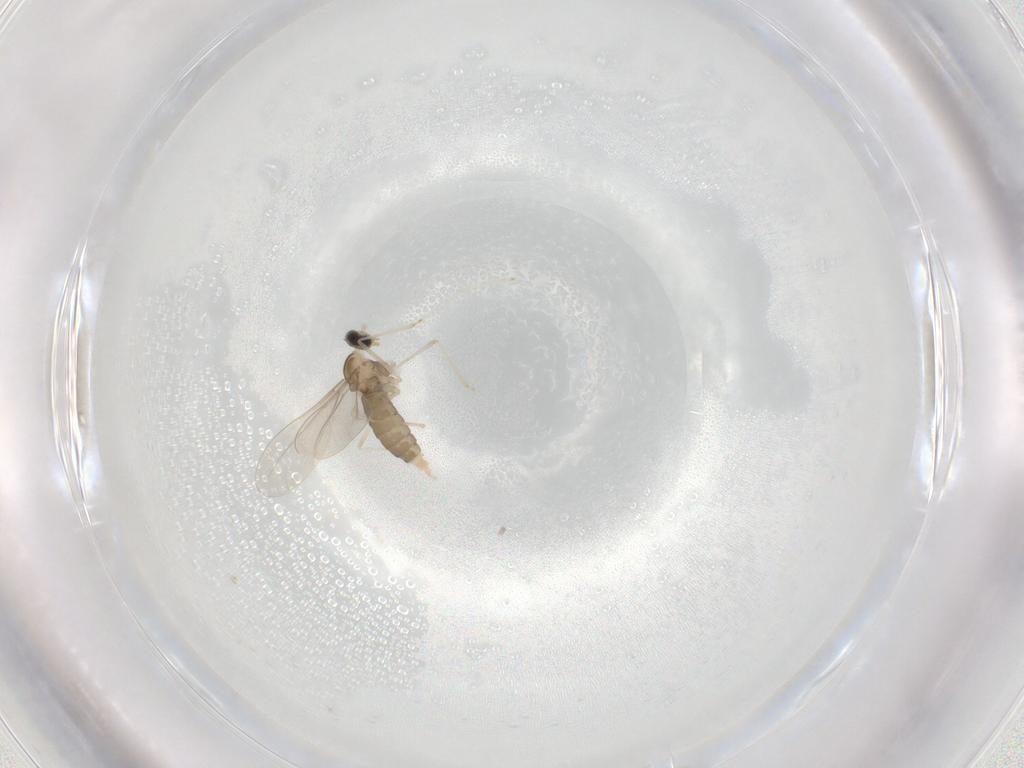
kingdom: Animalia
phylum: Arthropoda
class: Insecta
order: Diptera
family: Cecidomyiidae
